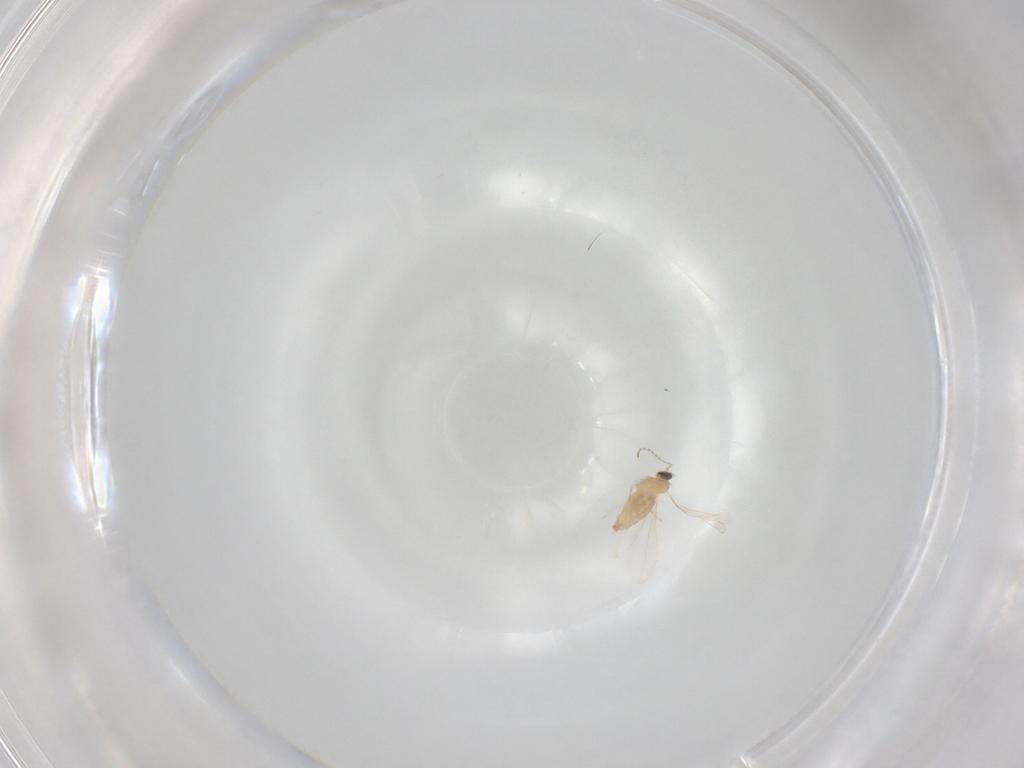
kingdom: Animalia
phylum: Arthropoda
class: Insecta
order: Diptera
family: Cecidomyiidae
